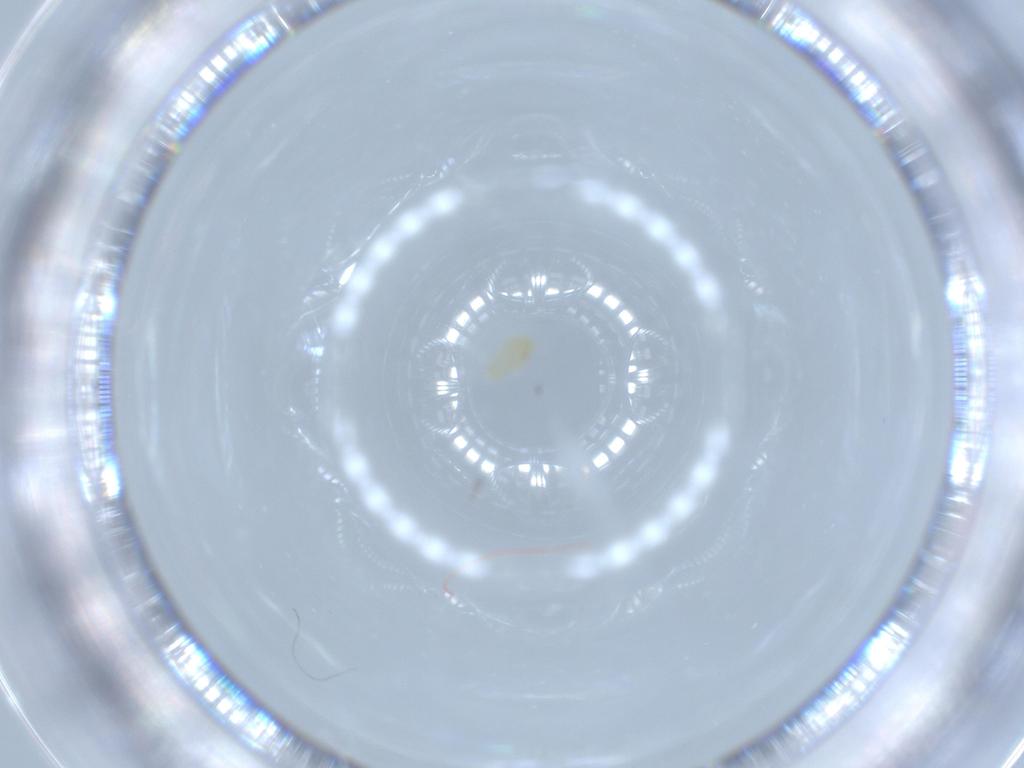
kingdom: Animalia
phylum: Arthropoda
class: Insecta
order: Diptera
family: Cecidomyiidae
